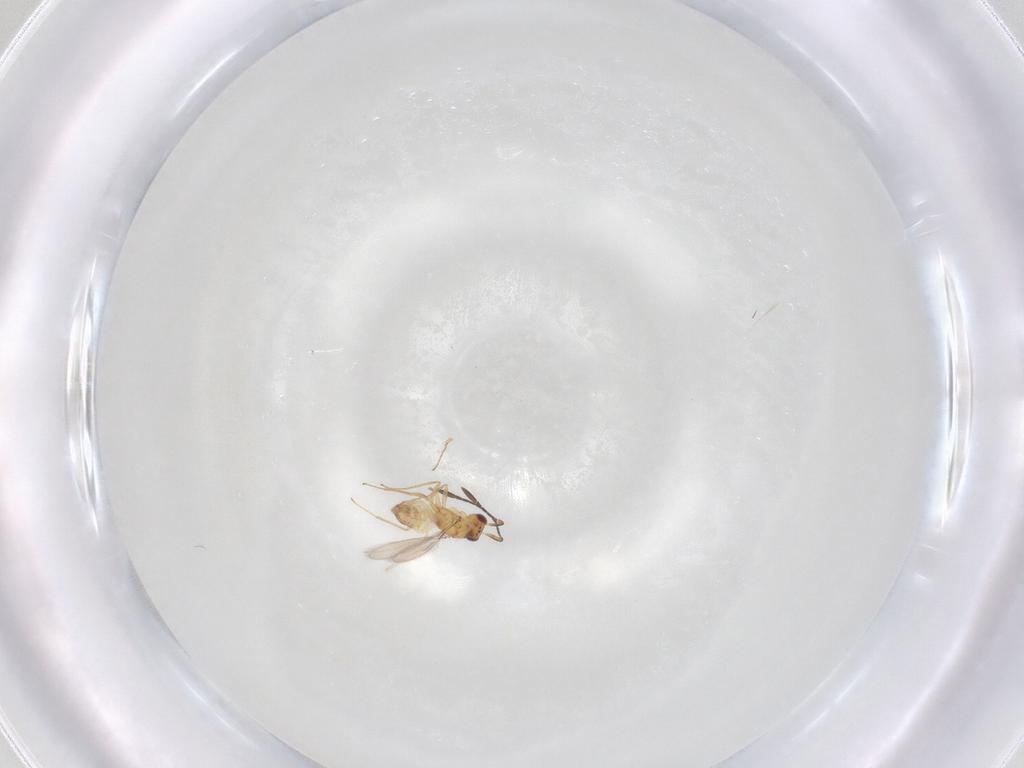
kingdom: Animalia
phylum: Arthropoda
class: Insecta
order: Hymenoptera
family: Mymaridae
